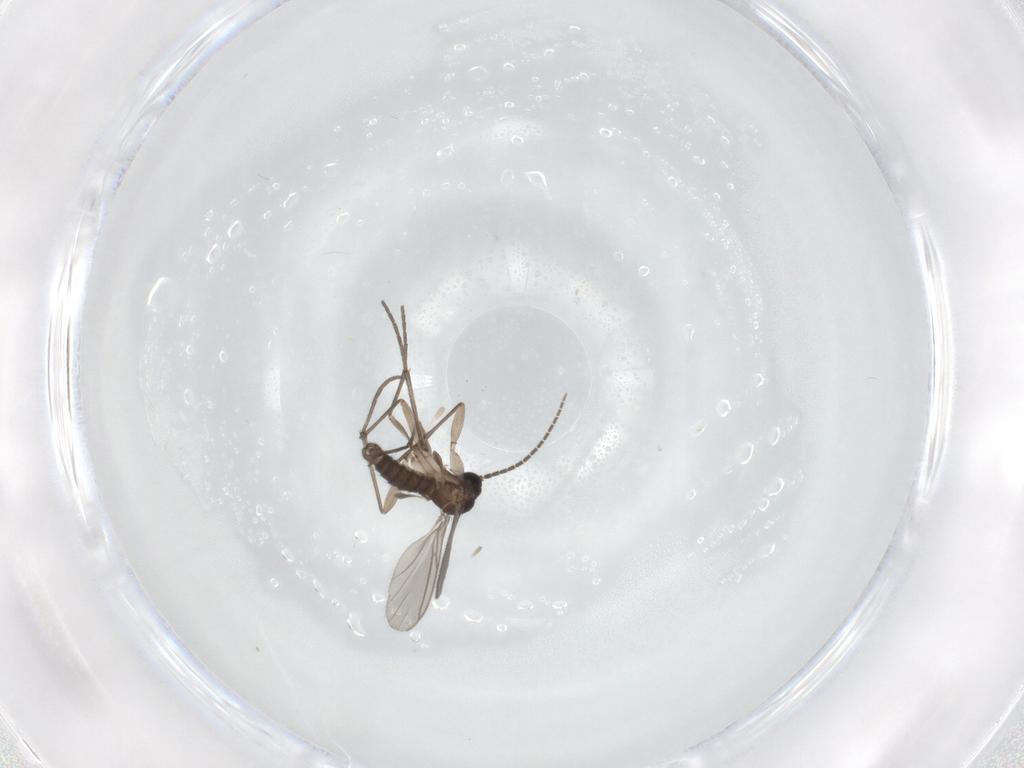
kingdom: Animalia
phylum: Arthropoda
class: Insecta
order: Diptera
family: Sciaridae
